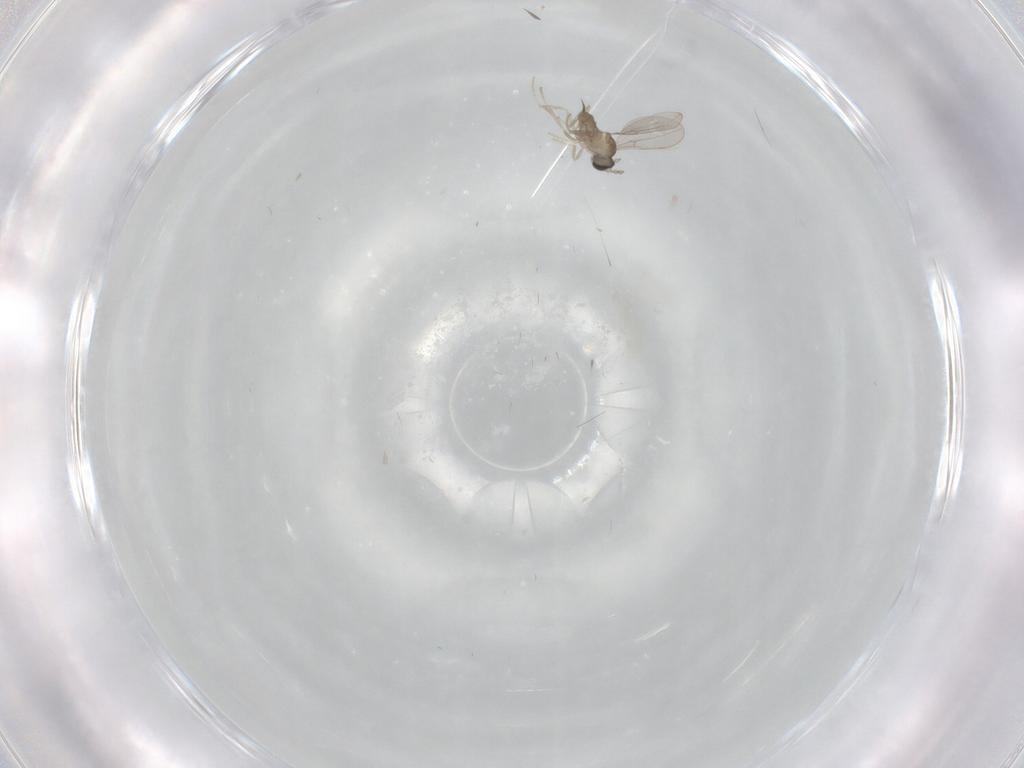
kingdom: Animalia
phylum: Arthropoda
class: Insecta
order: Diptera
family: Cecidomyiidae
